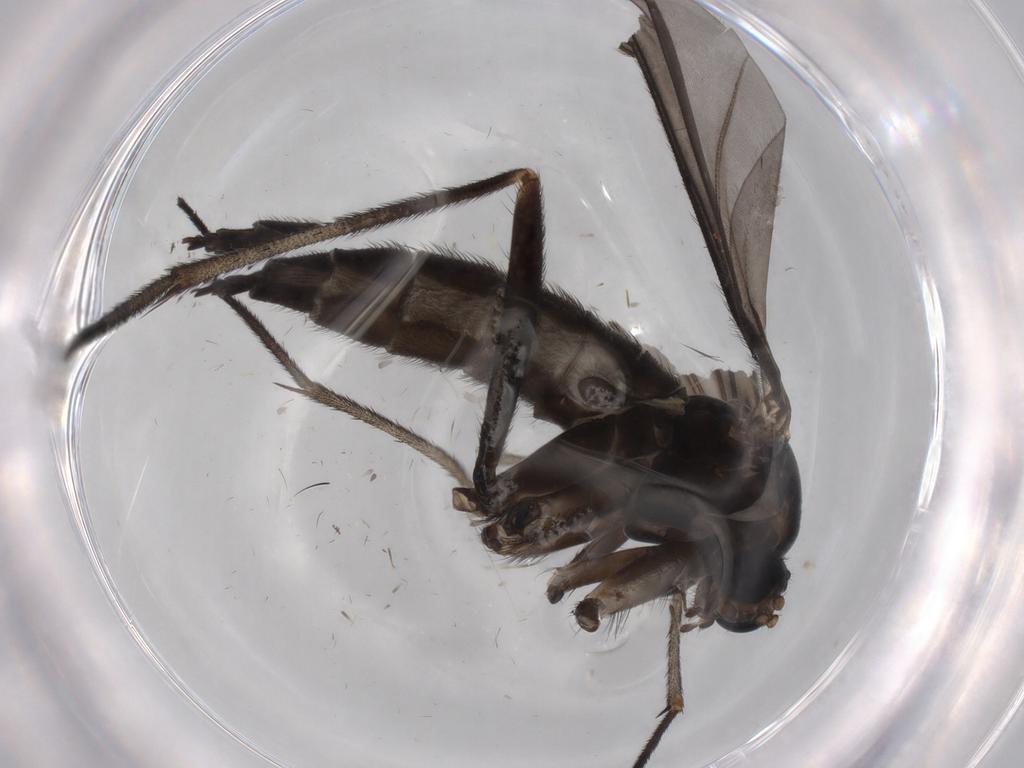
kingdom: Animalia
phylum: Arthropoda
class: Insecta
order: Diptera
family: Sciaridae
